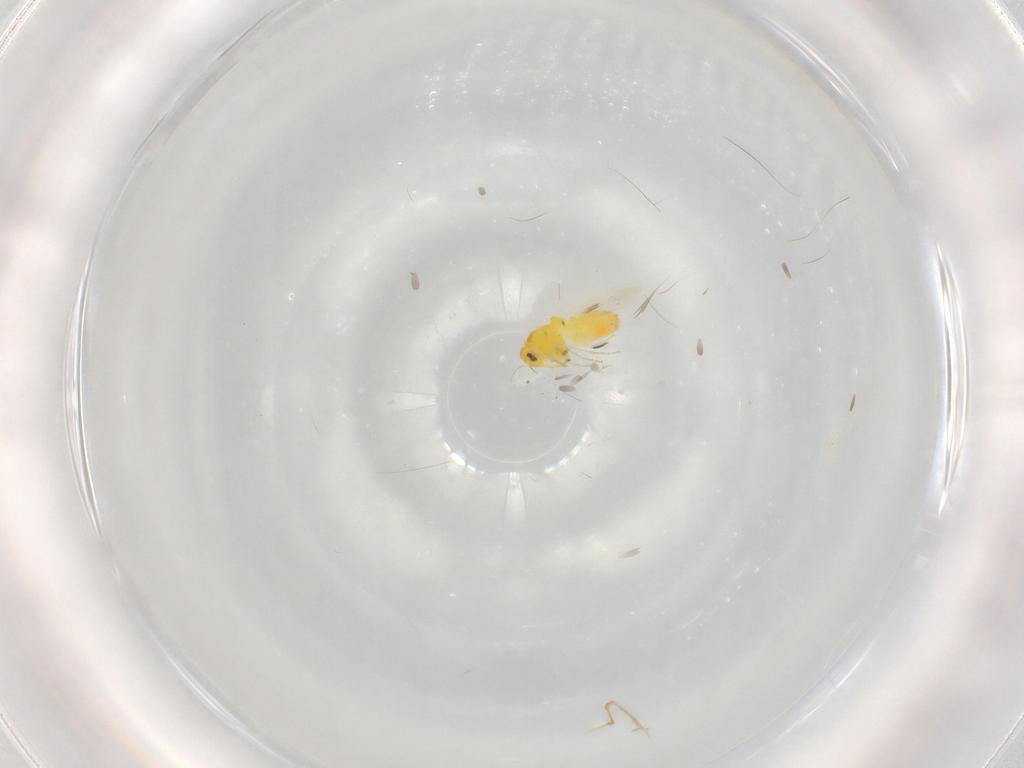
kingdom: Animalia
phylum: Arthropoda
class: Insecta
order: Hemiptera
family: Aleyrodidae
